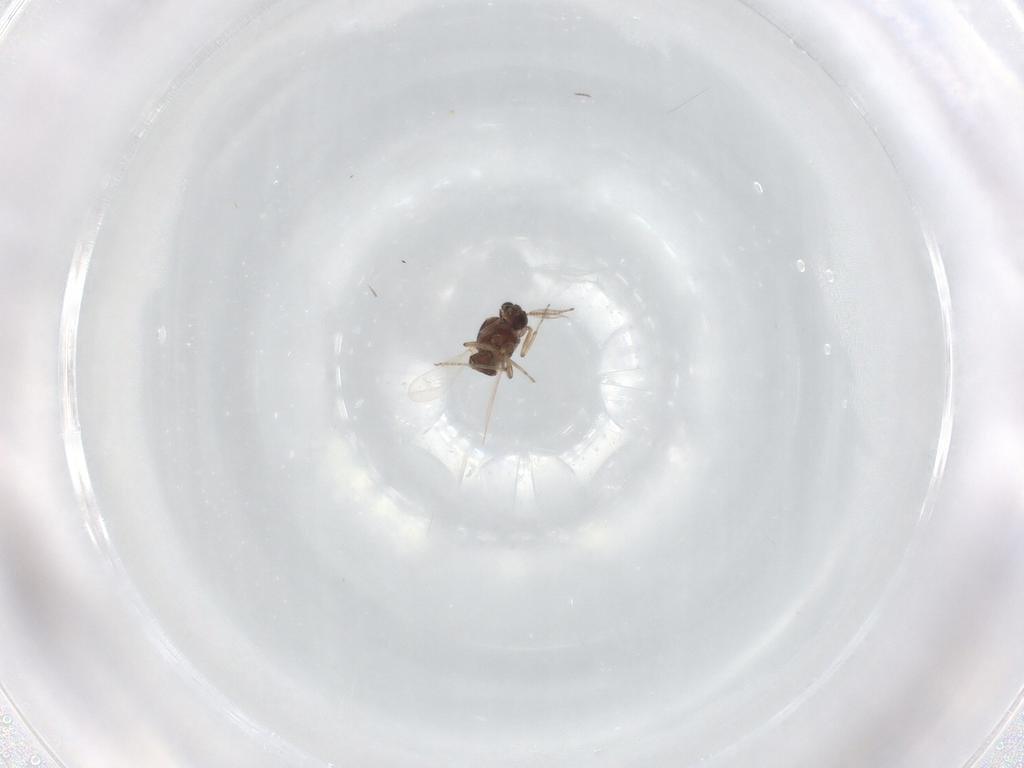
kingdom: Animalia
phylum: Arthropoda
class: Insecta
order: Diptera
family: Ceratopogonidae
